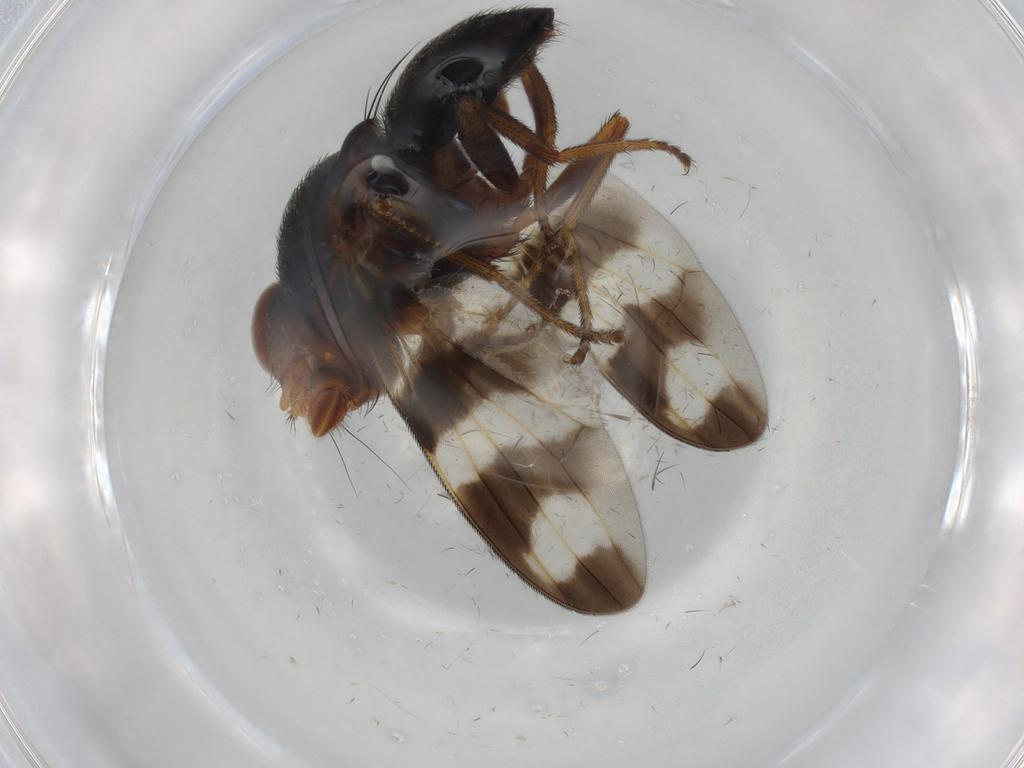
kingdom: Animalia
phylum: Arthropoda
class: Insecta
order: Diptera
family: Ulidiidae
